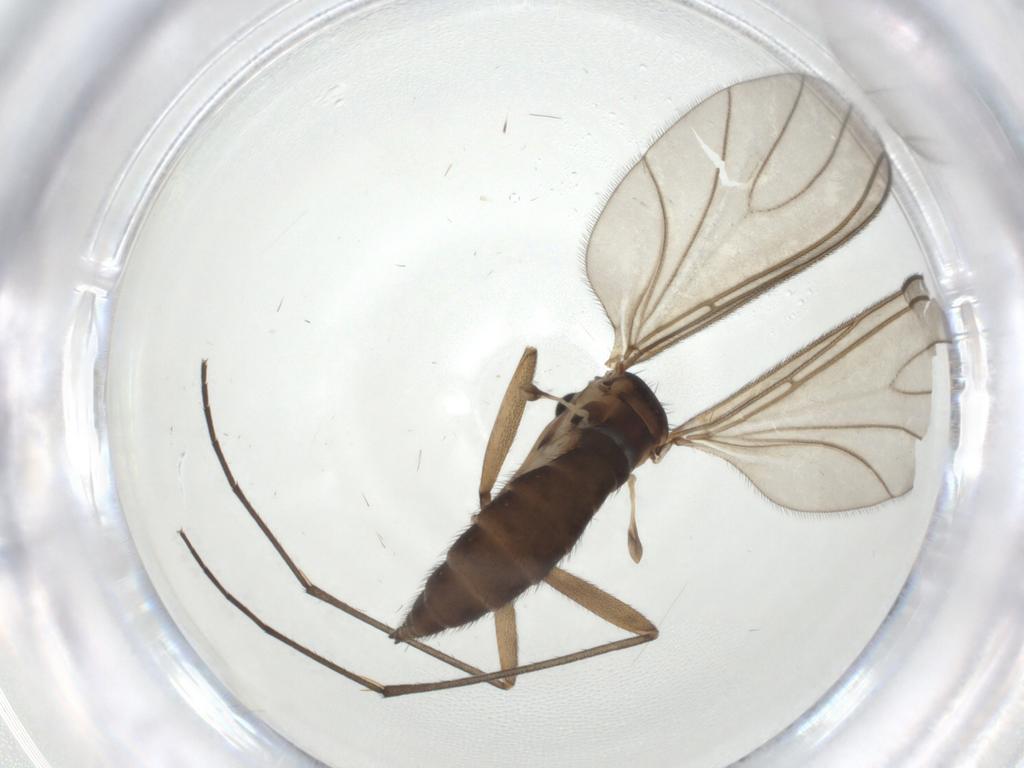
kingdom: Animalia
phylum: Arthropoda
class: Insecta
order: Diptera
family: Sciaridae
